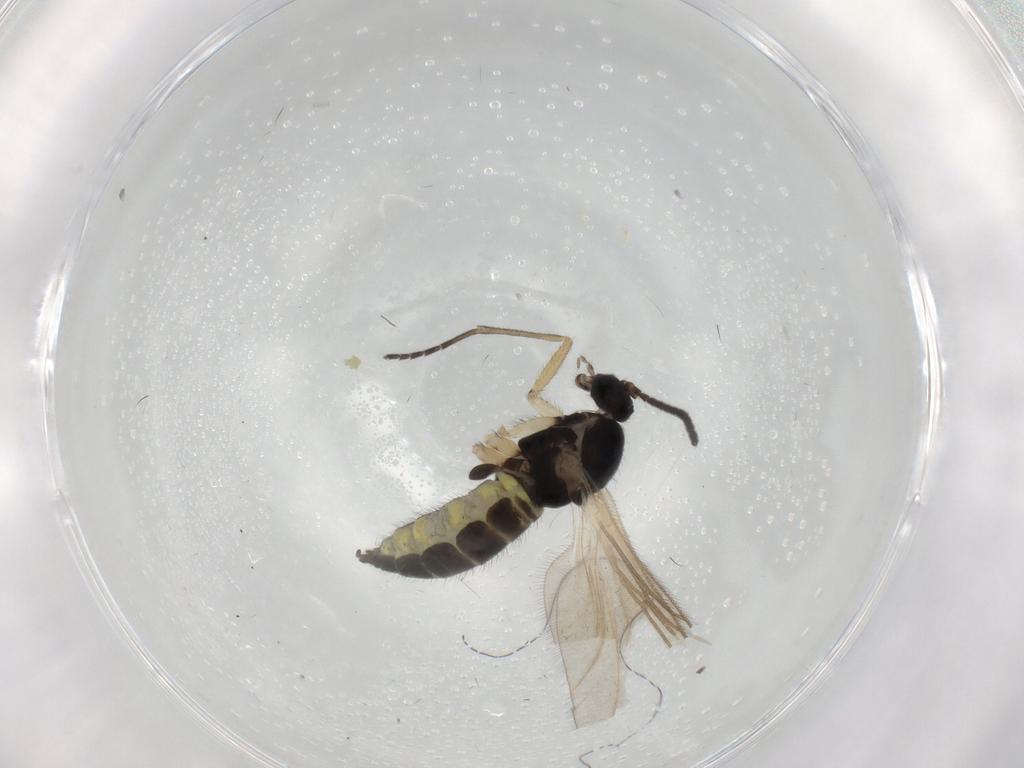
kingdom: Animalia
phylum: Arthropoda
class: Insecta
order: Diptera
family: Sciaridae
